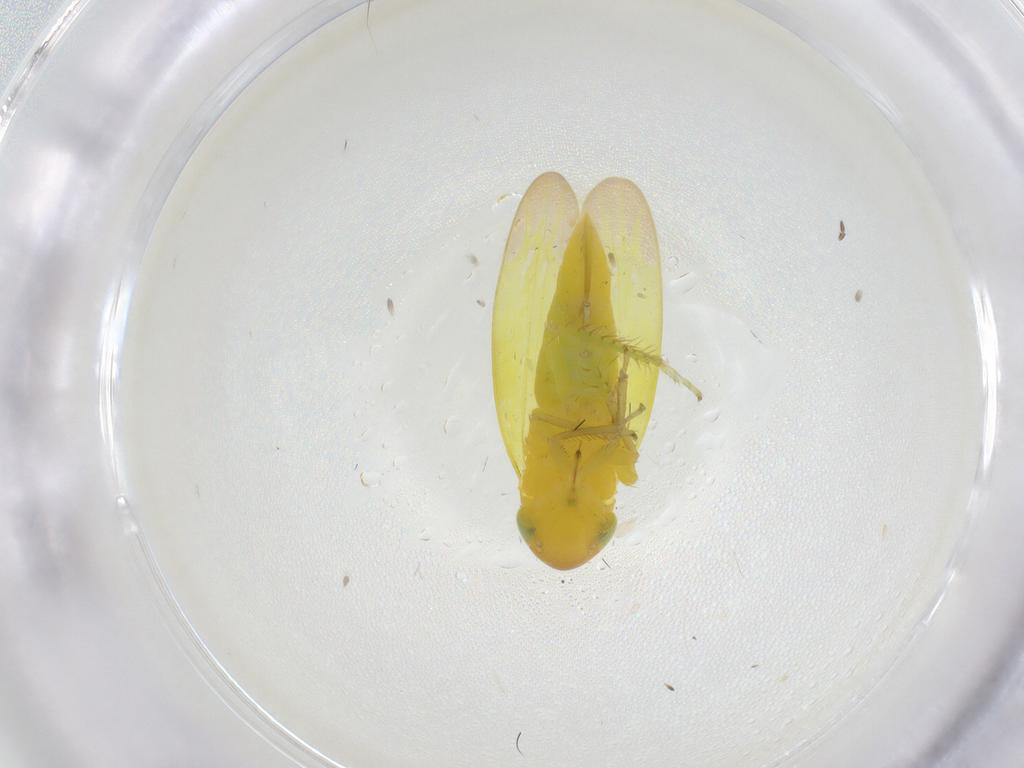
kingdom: Animalia
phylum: Arthropoda
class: Insecta
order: Hemiptera
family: Cicadellidae
